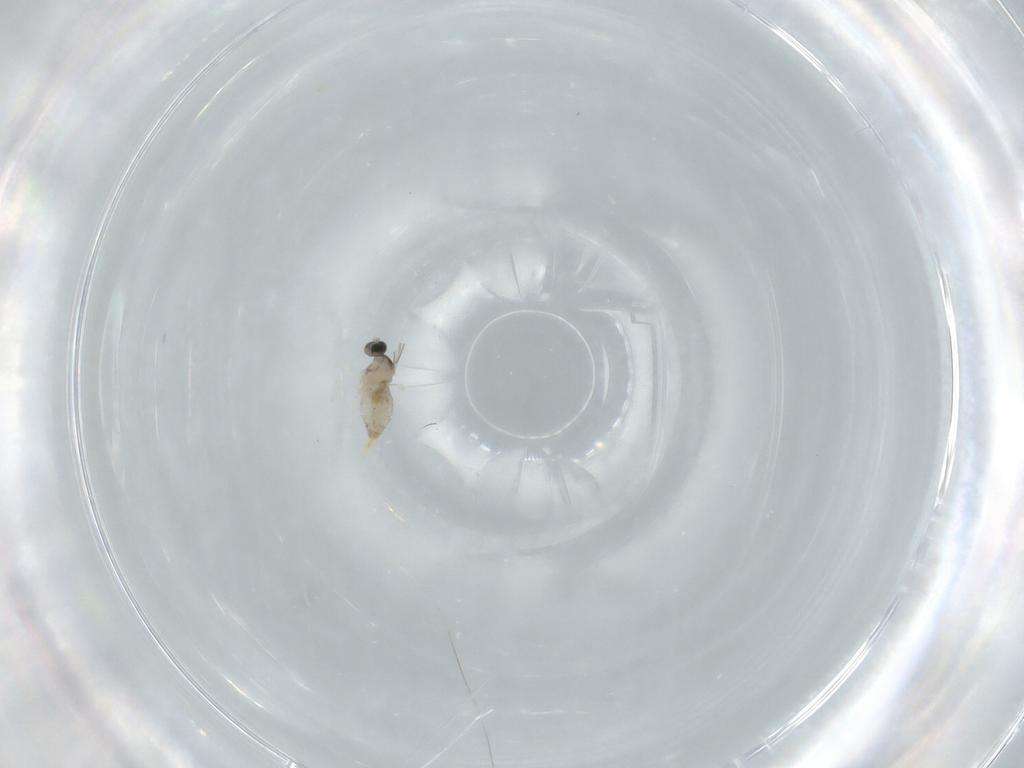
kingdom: Animalia
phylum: Arthropoda
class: Insecta
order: Diptera
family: Cecidomyiidae
